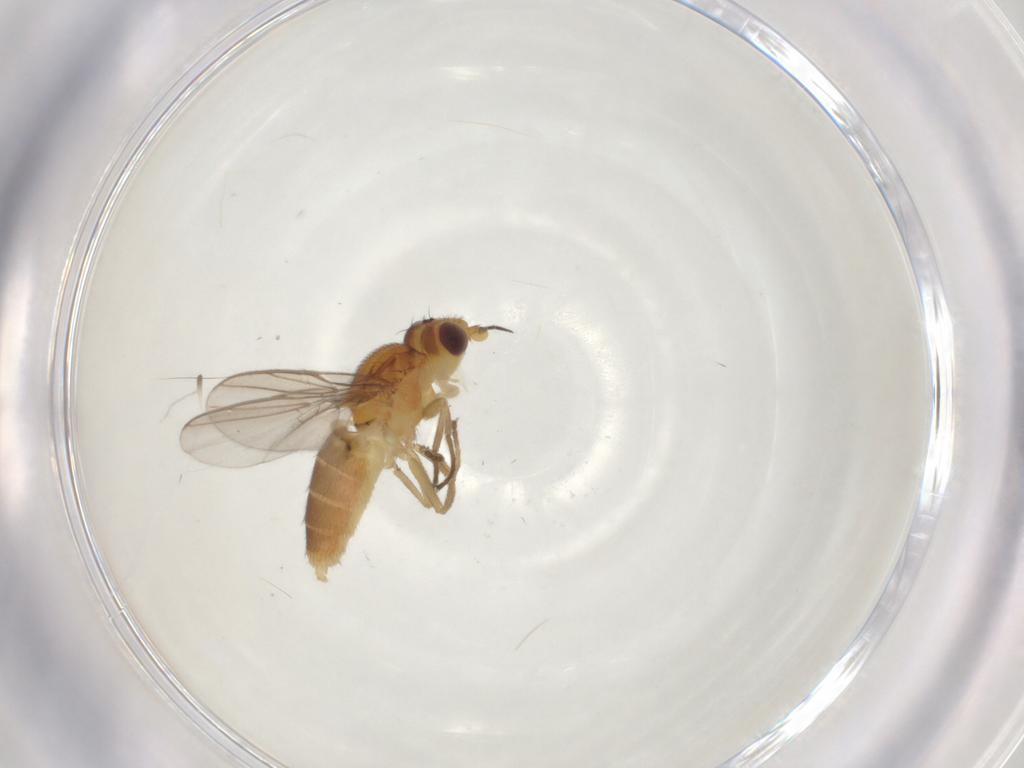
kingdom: Animalia
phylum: Arthropoda
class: Insecta
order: Diptera
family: Chloropidae
